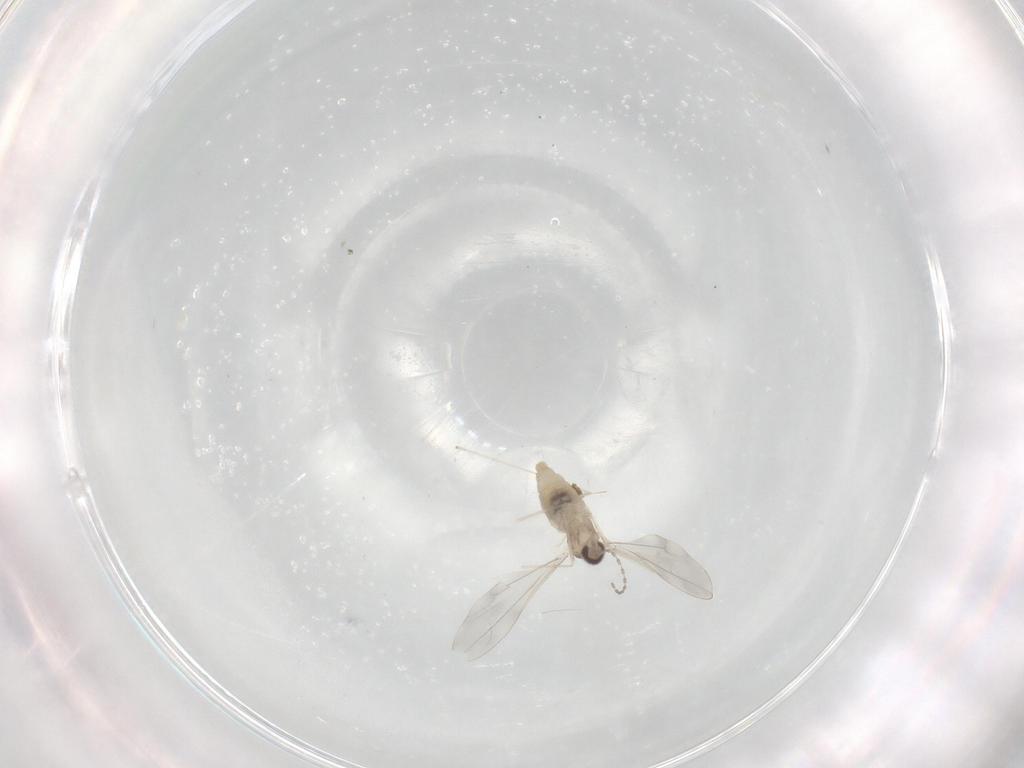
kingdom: Animalia
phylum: Arthropoda
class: Insecta
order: Diptera
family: Cecidomyiidae
